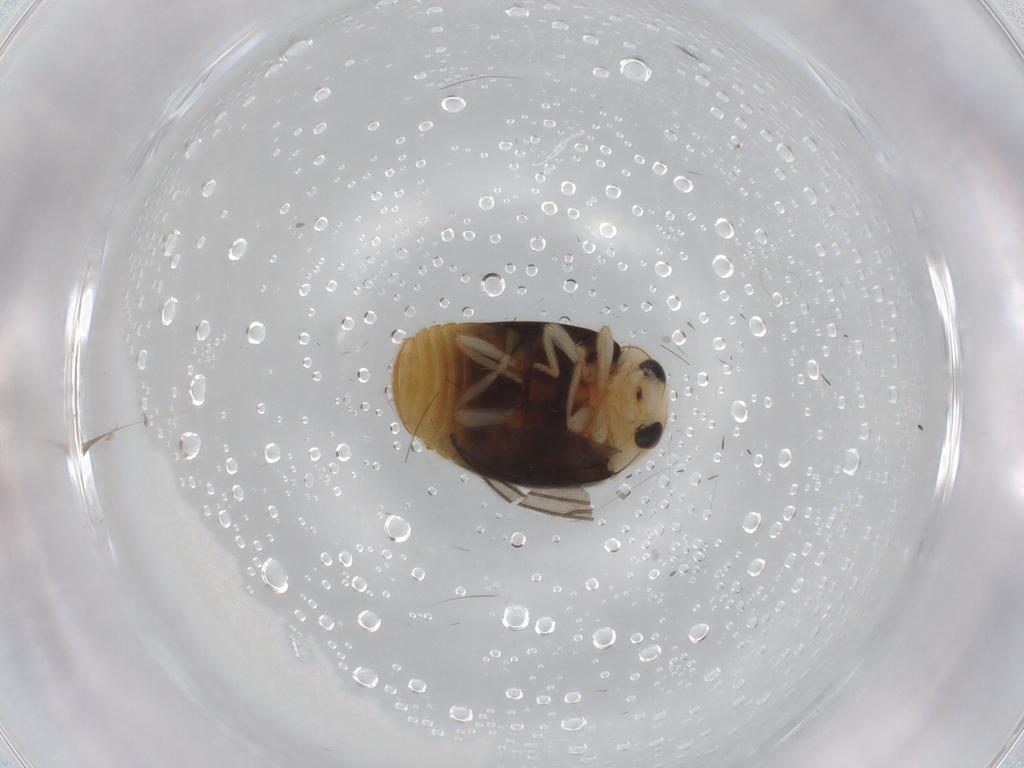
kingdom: Animalia
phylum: Arthropoda
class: Insecta
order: Coleoptera
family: Coccinellidae
